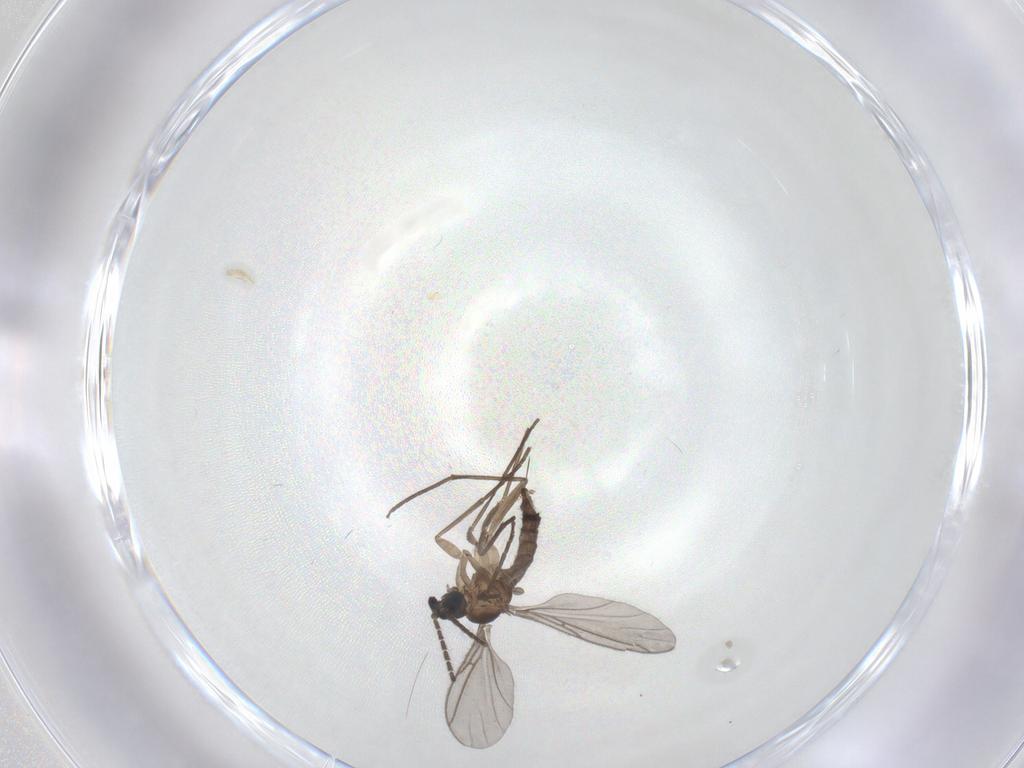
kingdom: Animalia
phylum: Arthropoda
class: Insecta
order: Diptera
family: Sciaridae
